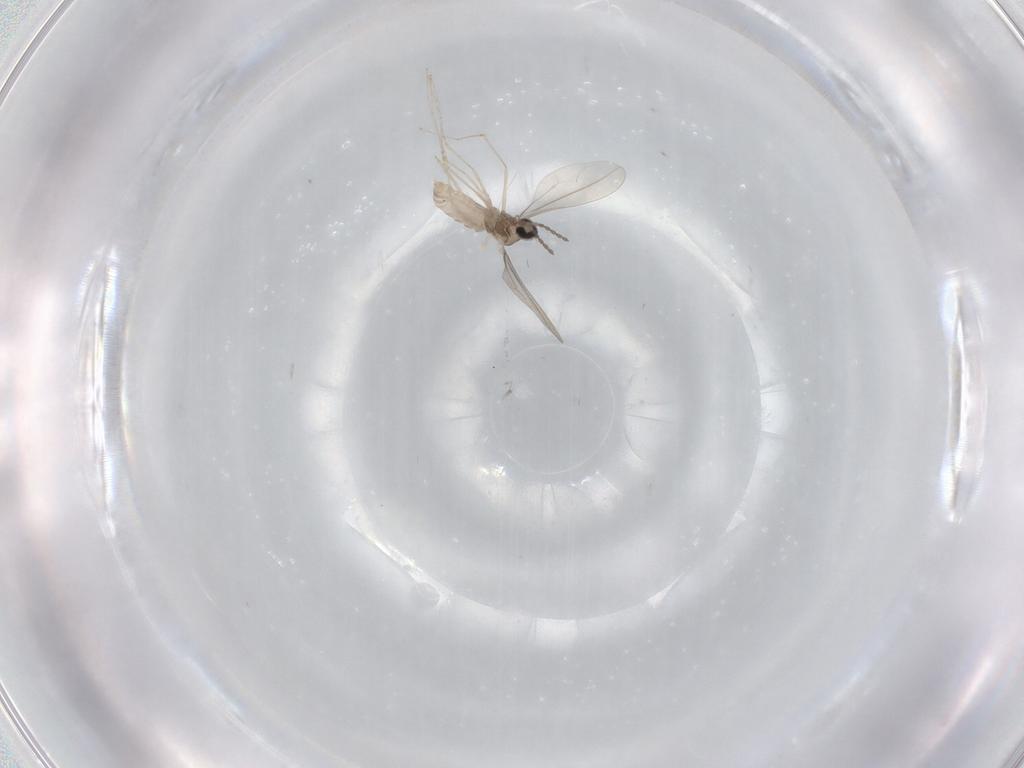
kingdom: Animalia
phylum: Arthropoda
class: Insecta
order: Diptera
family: Cecidomyiidae
